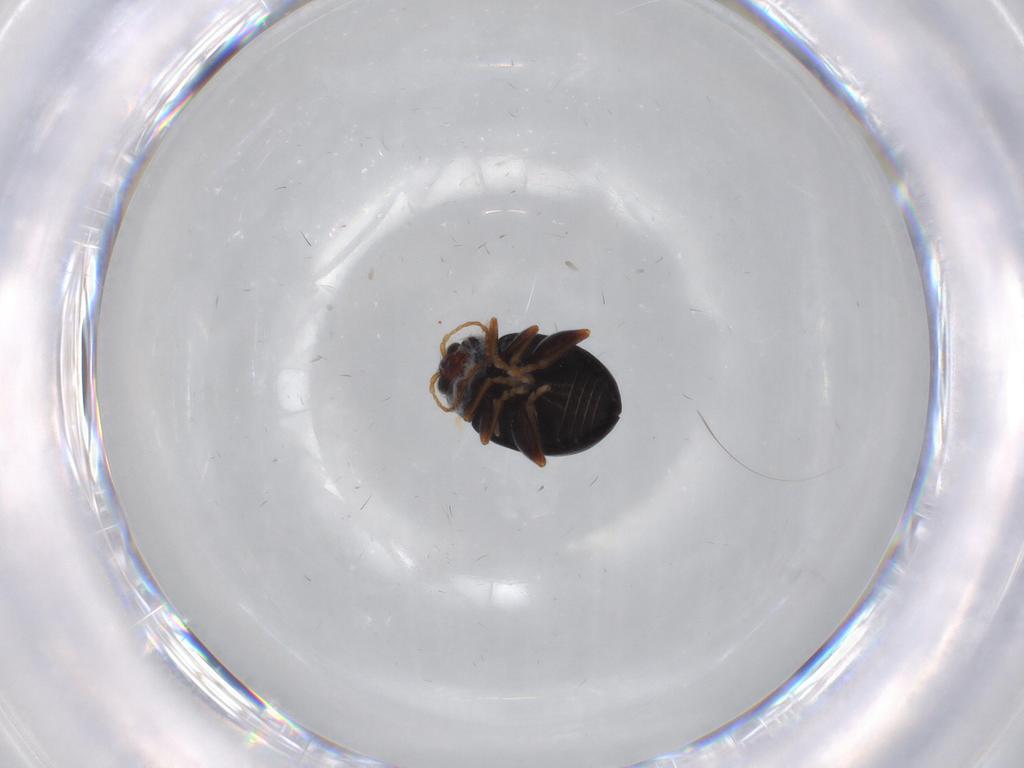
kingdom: Animalia
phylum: Arthropoda
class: Insecta
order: Coleoptera
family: Chrysomelidae
